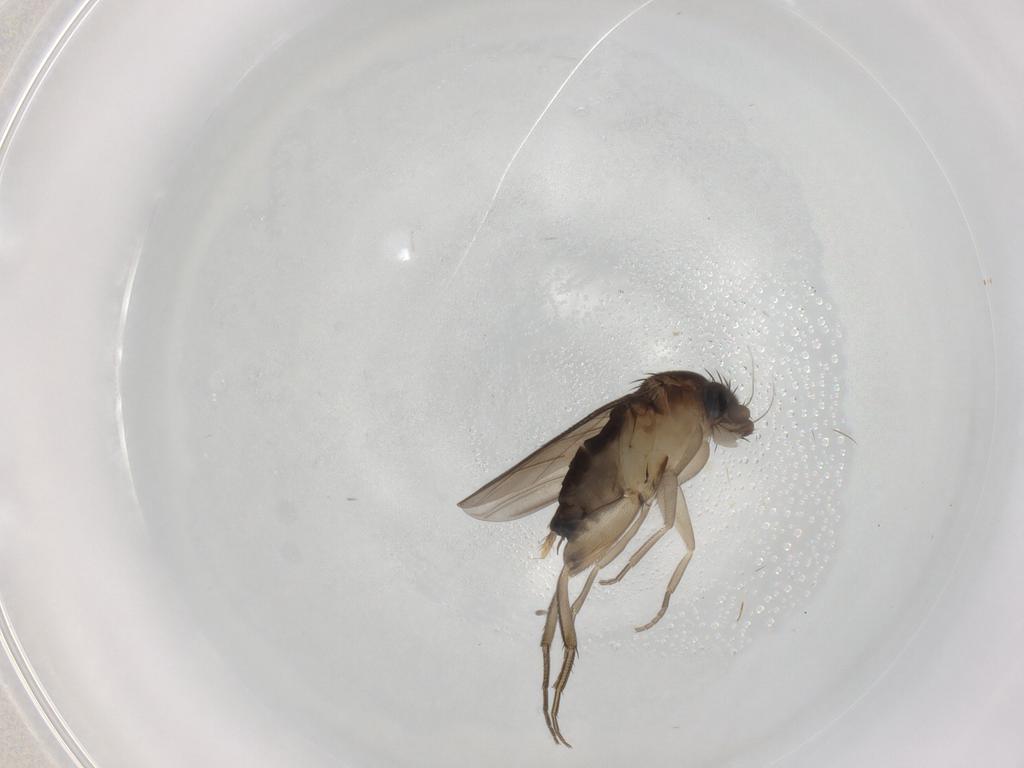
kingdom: Animalia
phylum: Arthropoda
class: Insecta
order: Diptera
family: Phoridae
